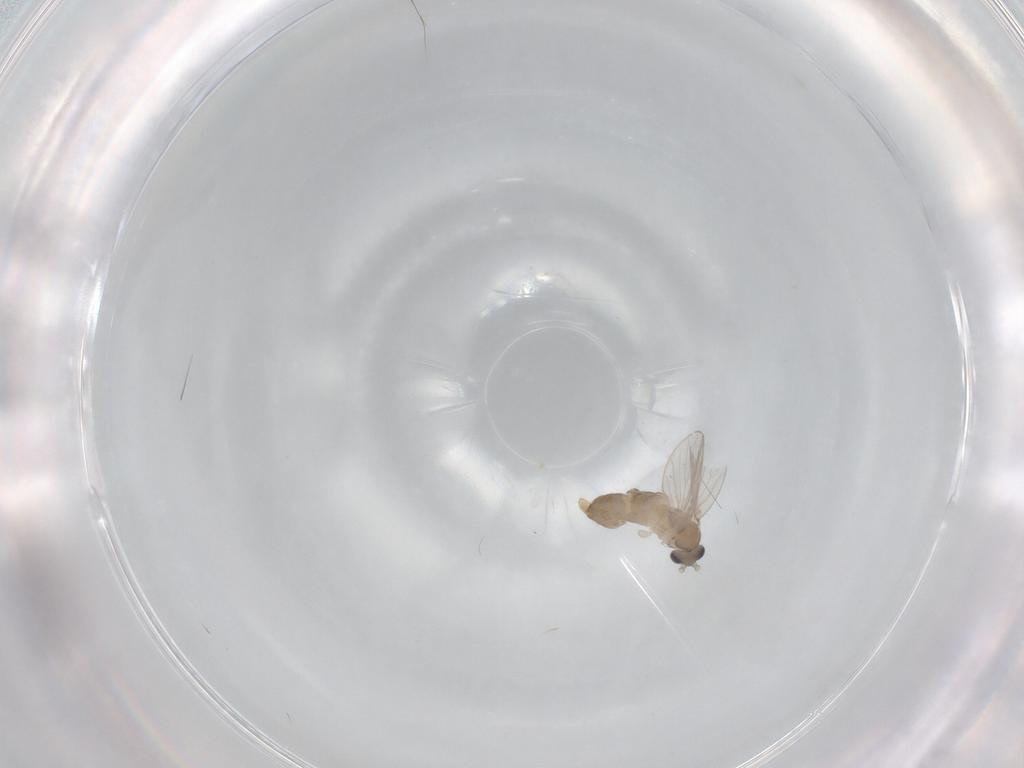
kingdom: Animalia
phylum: Arthropoda
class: Insecta
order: Diptera
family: Psychodidae
